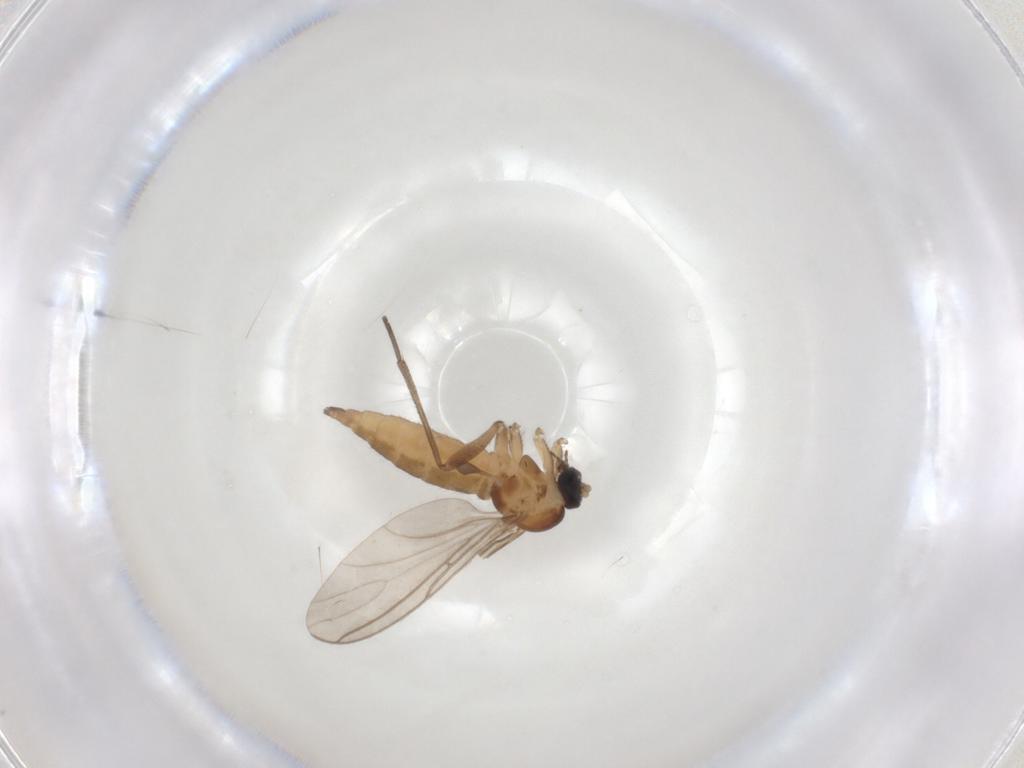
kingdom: Animalia
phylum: Arthropoda
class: Insecta
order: Diptera
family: Sciaridae
